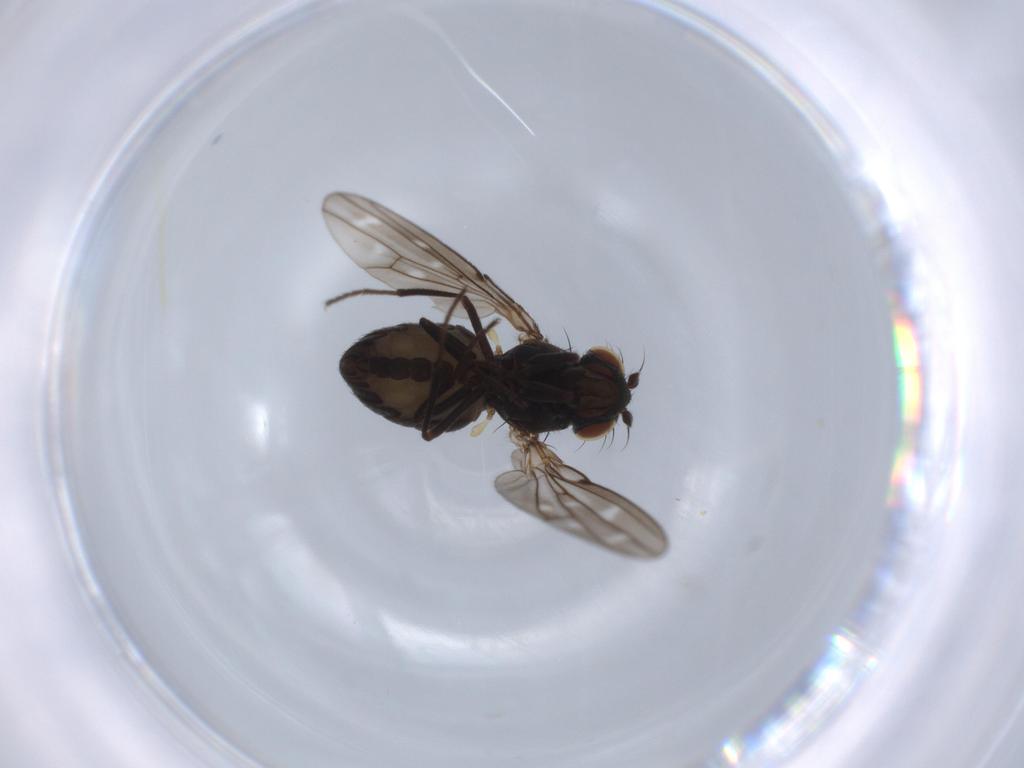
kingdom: Animalia
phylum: Arthropoda
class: Insecta
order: Diptera
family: Ephydridae
